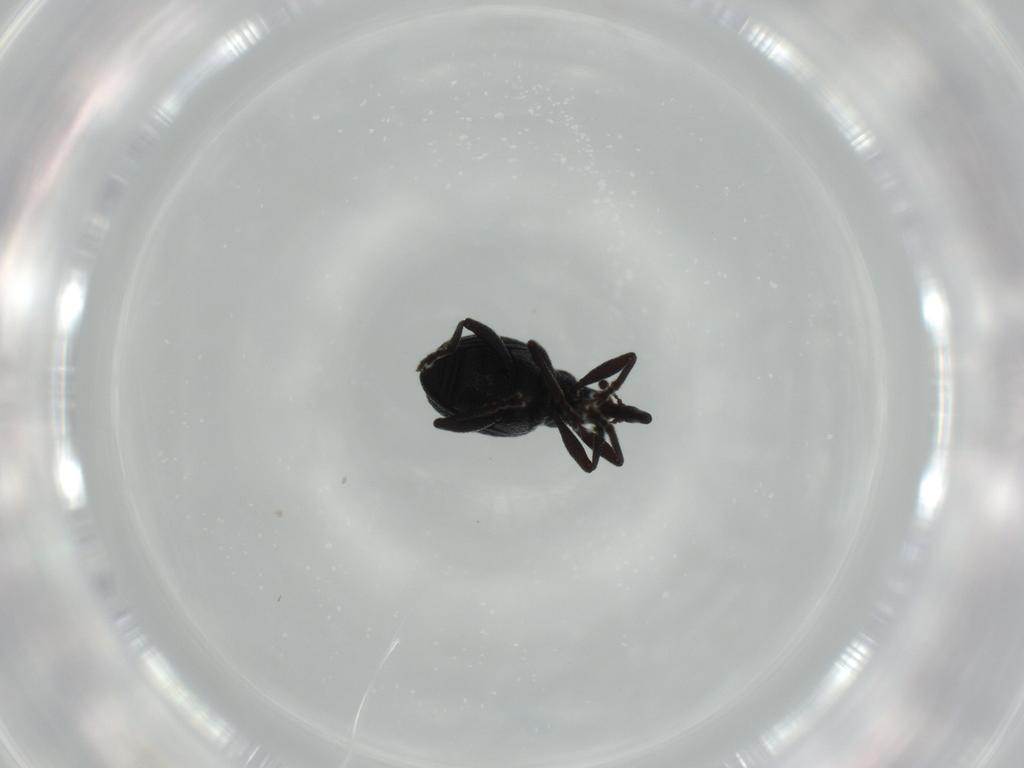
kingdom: Animalia
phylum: Arthropoda
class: Insecta
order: Coleoptera
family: Brentidae
